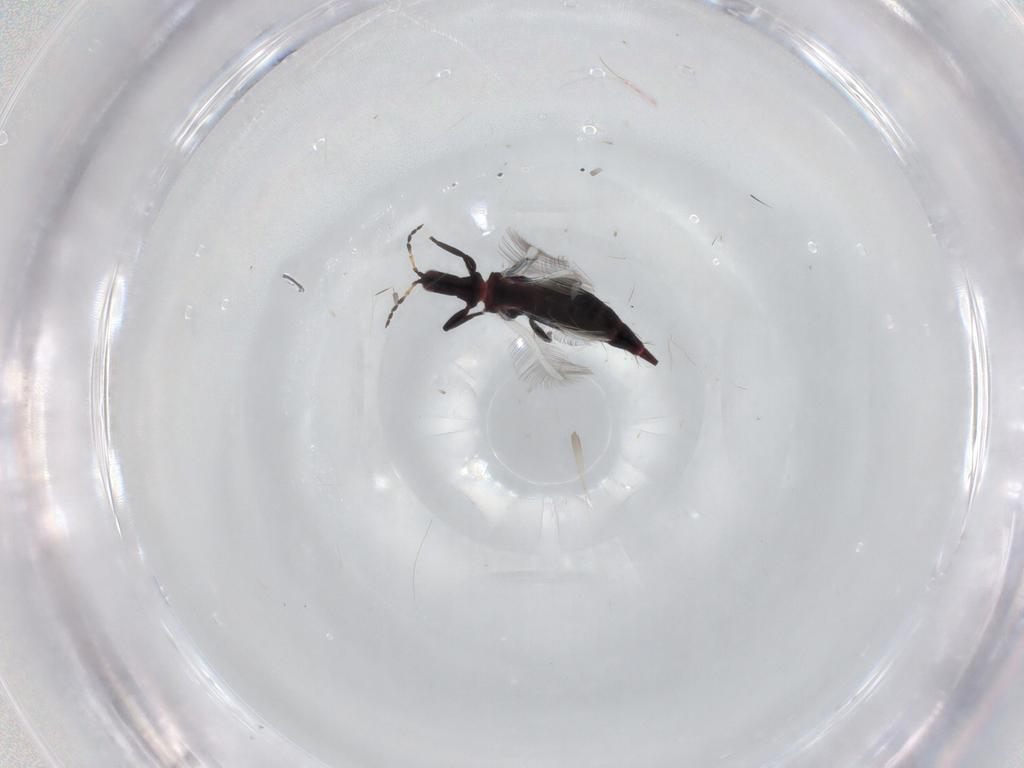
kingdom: Animalia
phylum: Arthropoda
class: Insecta
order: Thysanoptera
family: Phlaeothripidae
